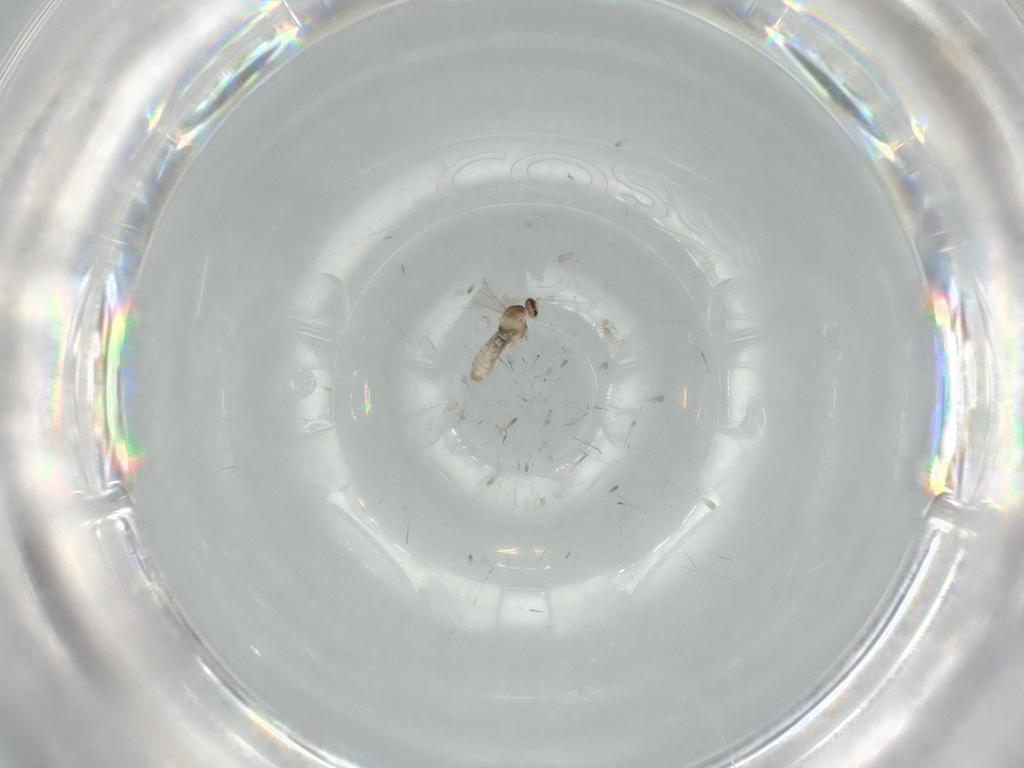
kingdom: Animalia
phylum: Arthropoda
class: Insecta
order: Diptera
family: Cecidomyiidae
